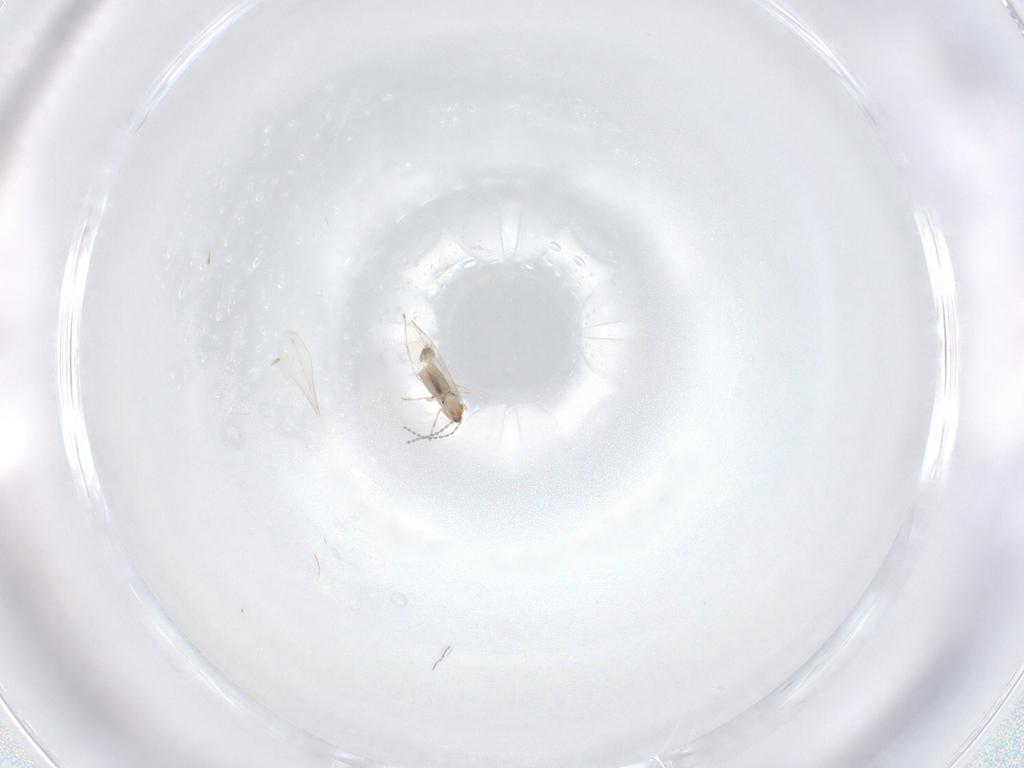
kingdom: Animalia
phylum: Arthropoda
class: Insecta
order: Diptera
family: Cecidomyiidae
